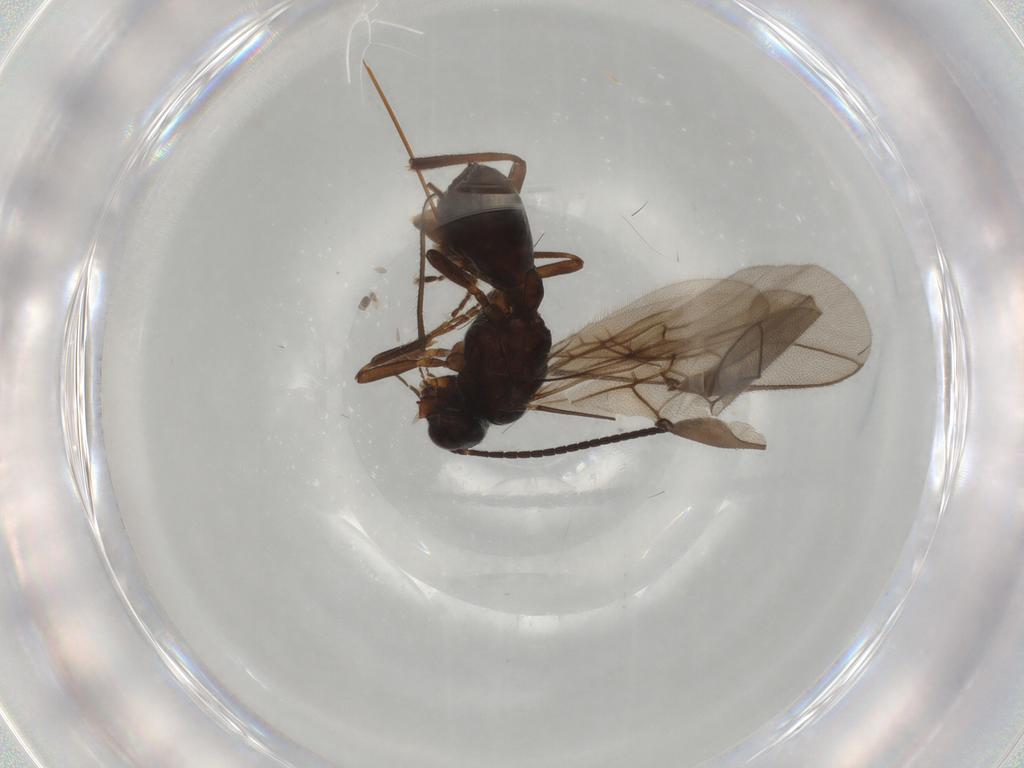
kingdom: Animalia
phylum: Arthropoda
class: Insecta
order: Hymenoptera
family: Braconidae
